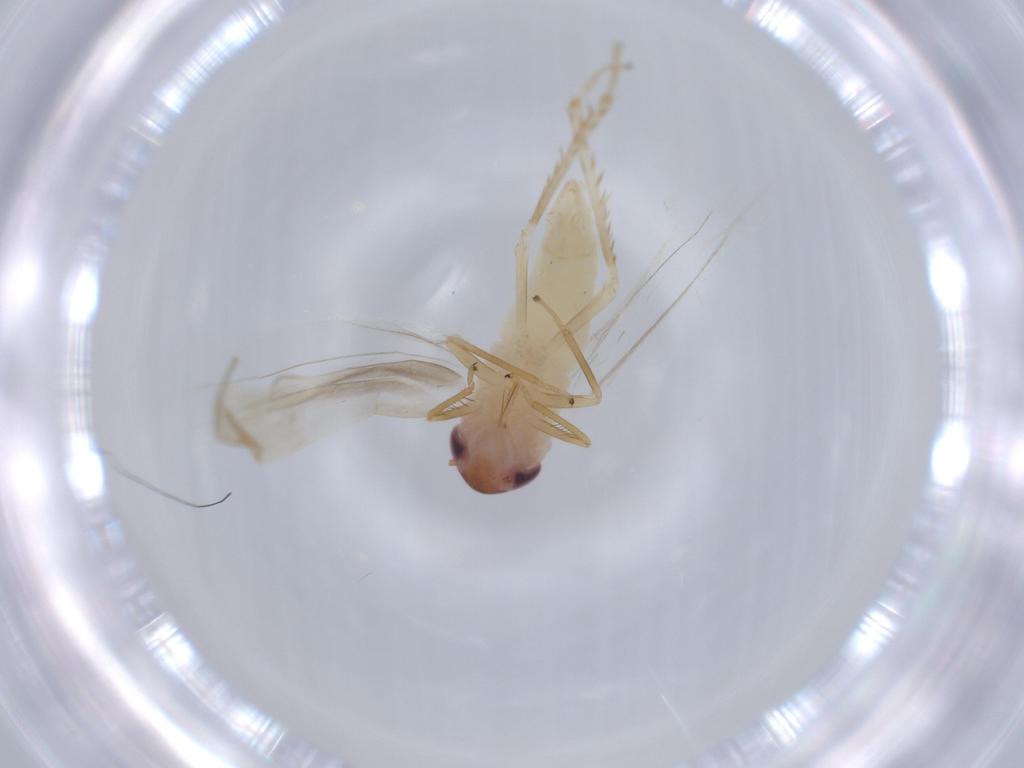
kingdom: Animalia
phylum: Arthropoda
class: Insecta
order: Hemiptera
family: Cicadellidae
